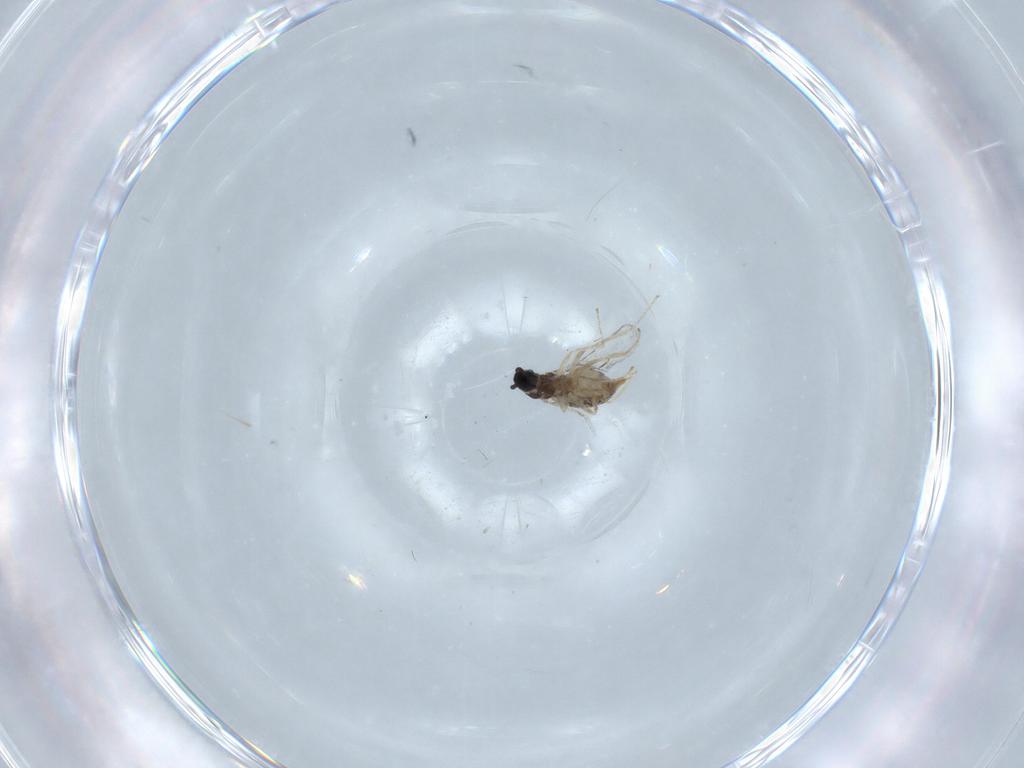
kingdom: Animalia
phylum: Arthropoda
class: Insecta
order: Diptera
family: Cecidomyiidae
